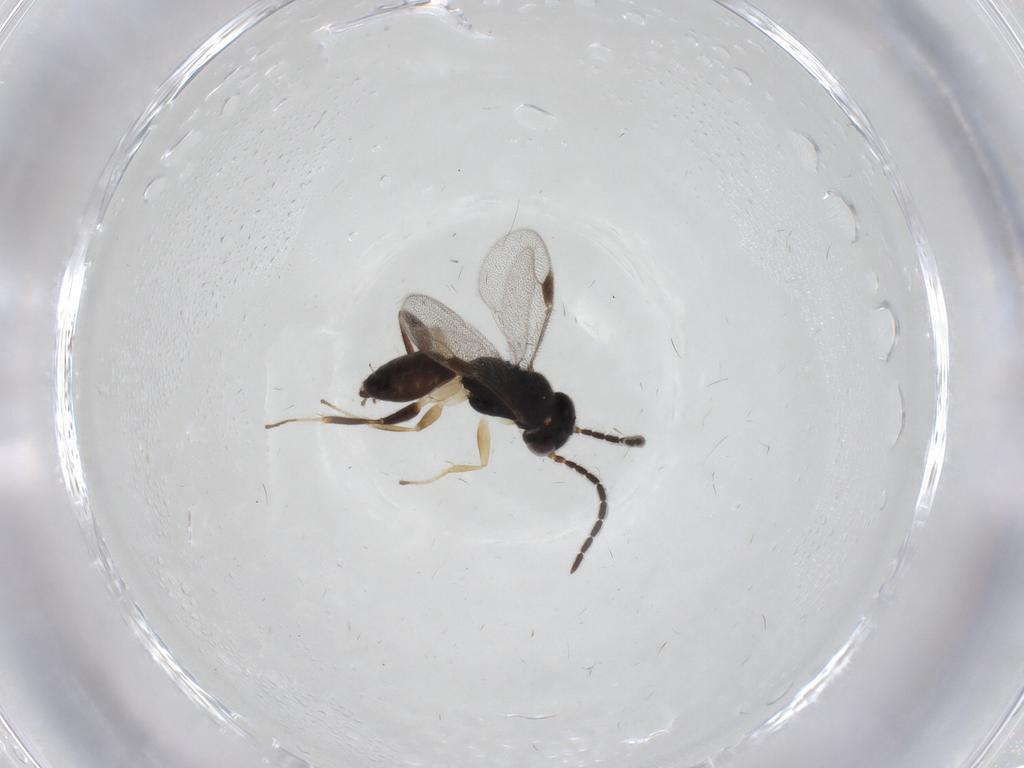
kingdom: Animalia
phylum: Arthropoda
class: Insecta
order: Hymenoptera
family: Dryinidae
